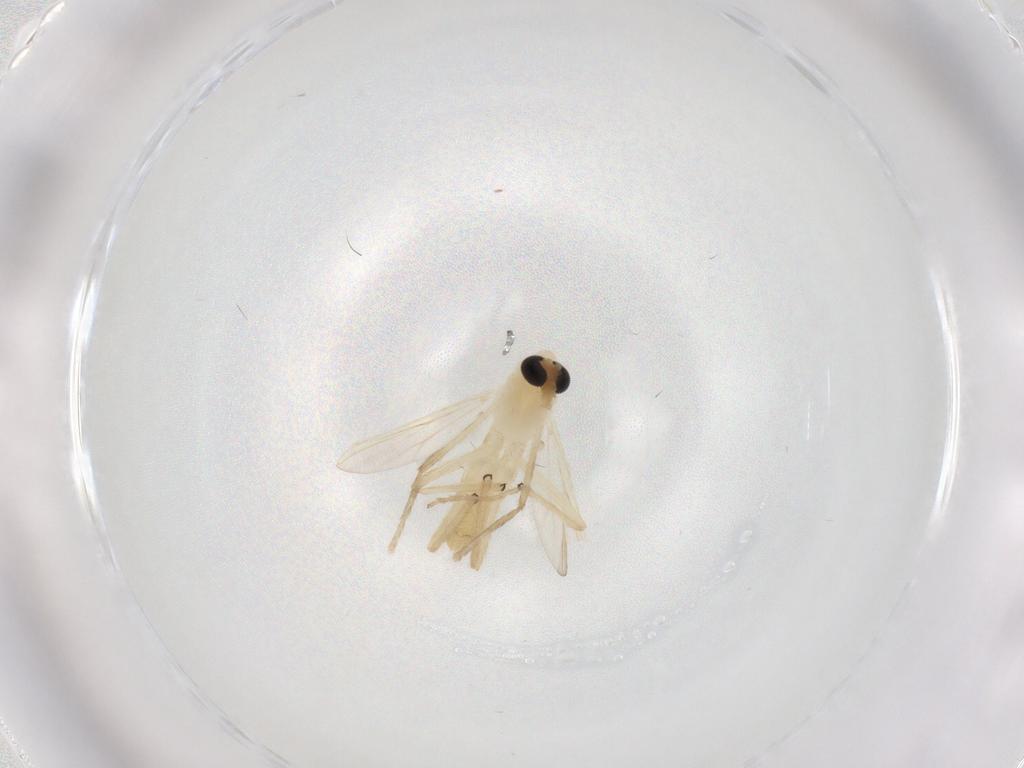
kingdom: Animalia
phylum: Arthropoda
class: Insecta
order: Diptera
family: Chironomidae
